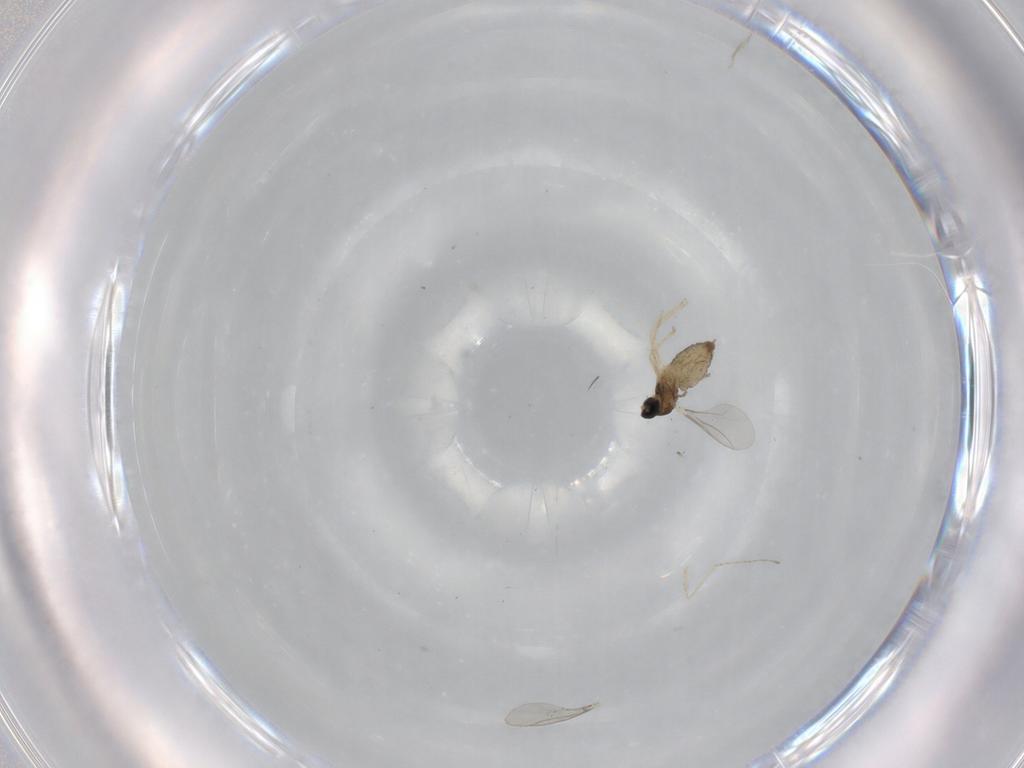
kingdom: Animalia
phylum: Arthropoda
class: Insecta
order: Diptera
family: Cecidomyiidae
